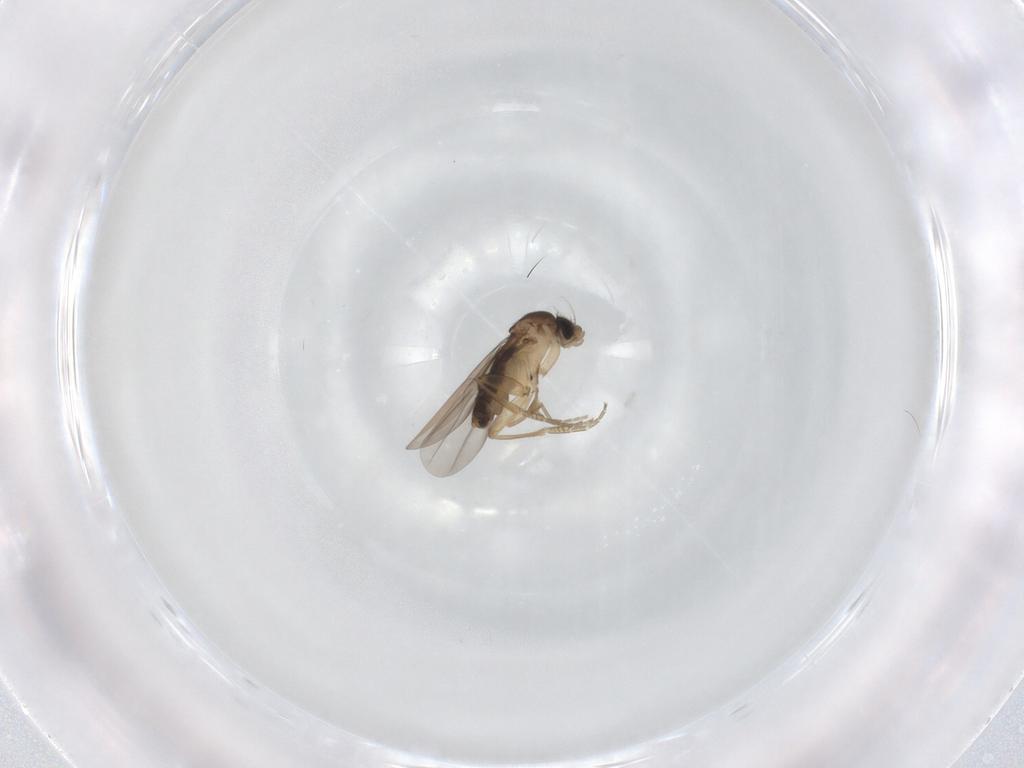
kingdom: Animalia
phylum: Arthropoda
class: Insecta
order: Diptera
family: Phoridae
